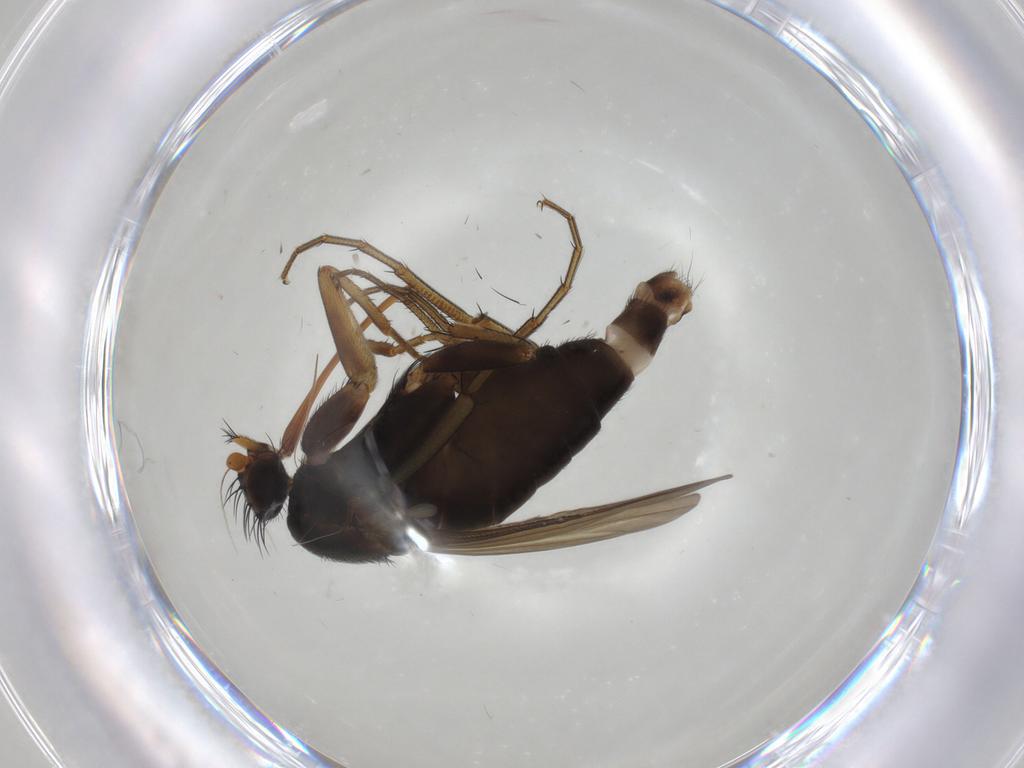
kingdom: Animalia
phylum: Arthropoda
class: Insecta
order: Diptera
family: Phoridae
